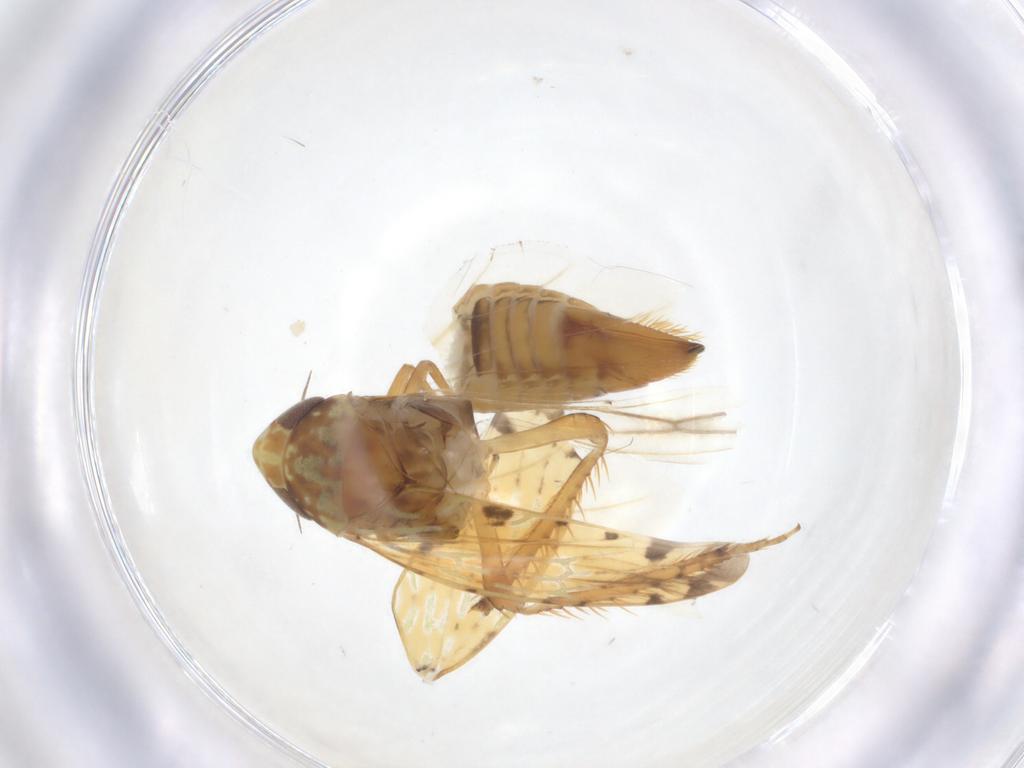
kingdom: Animalia
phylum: Arthropoda
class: Insecta
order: Hemiptera
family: Cicadellidae
